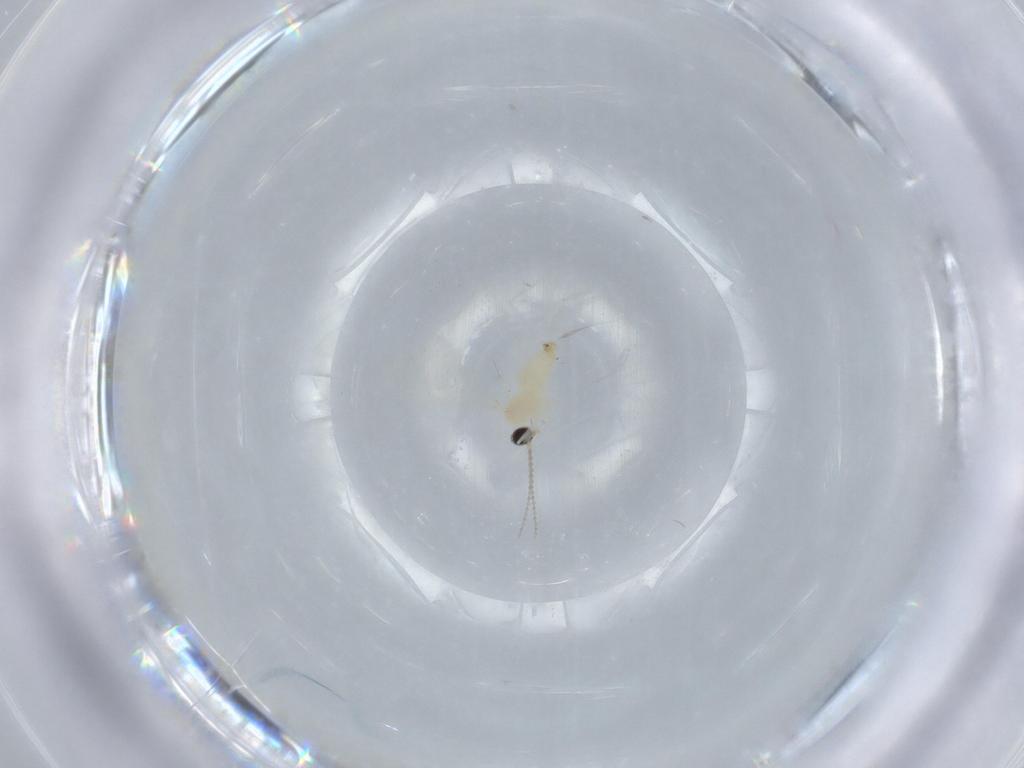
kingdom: Animalia
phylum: Arthropoda
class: Insecta
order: Diptera
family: Cecidomyiidae
